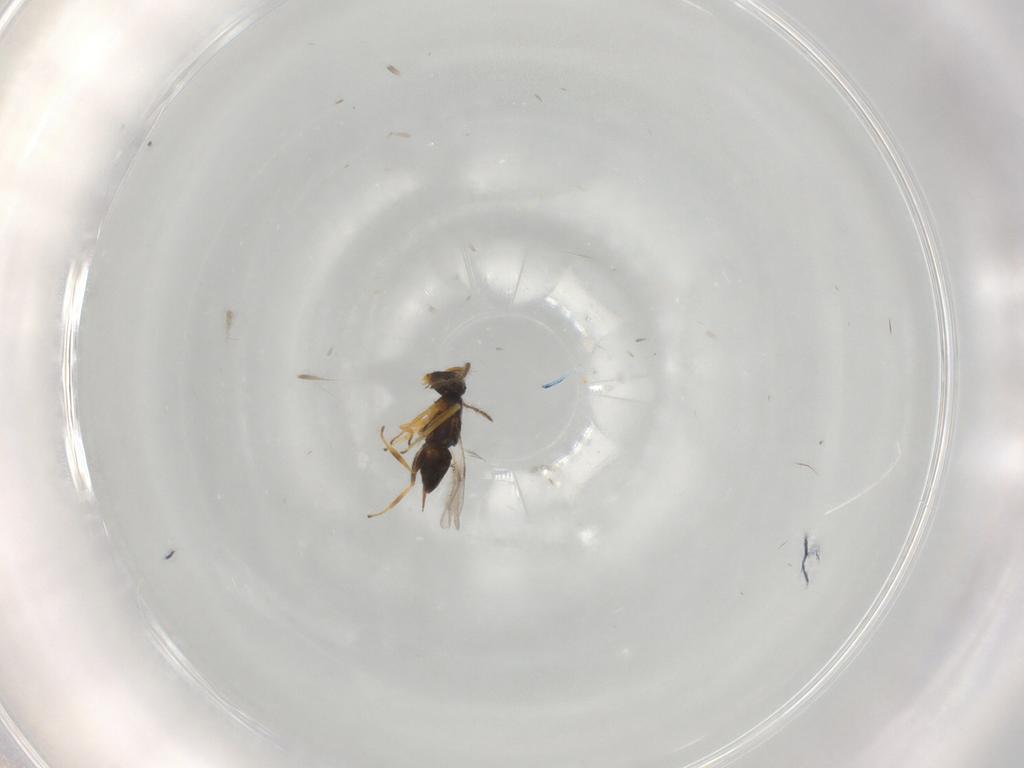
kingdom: Animalia
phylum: Arthropoda
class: Insecta
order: Hymenoptera
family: Encyrtidae
